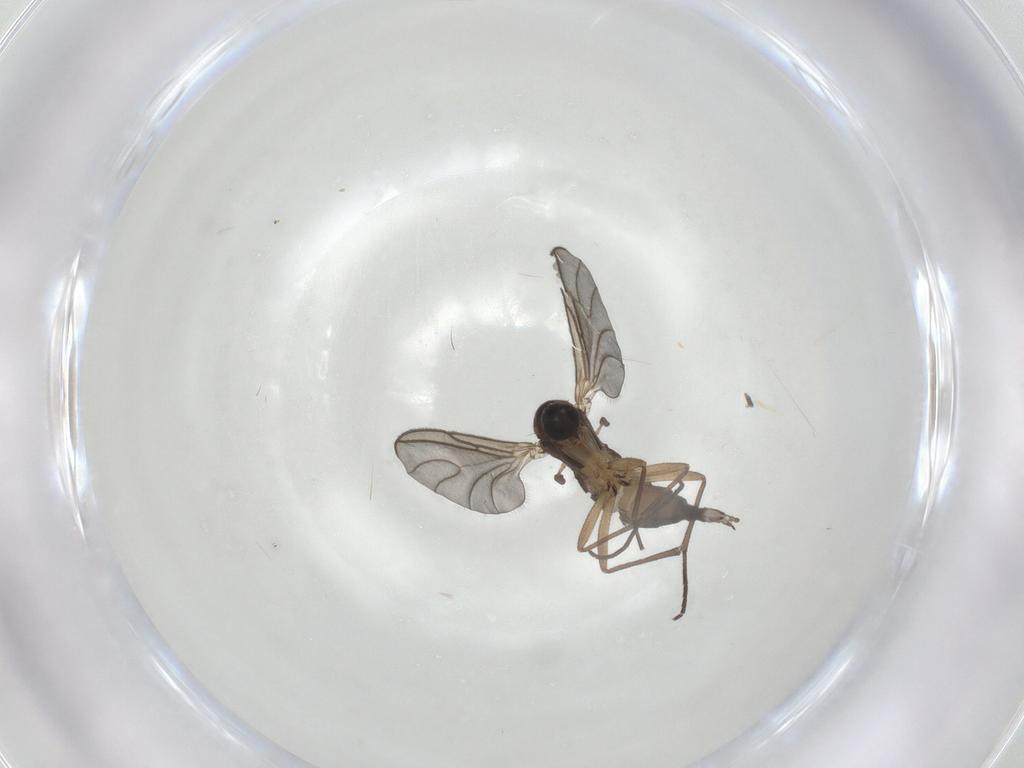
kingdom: Animalia
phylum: Arthropoda
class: Insecta
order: Diptera
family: Sciaridae
